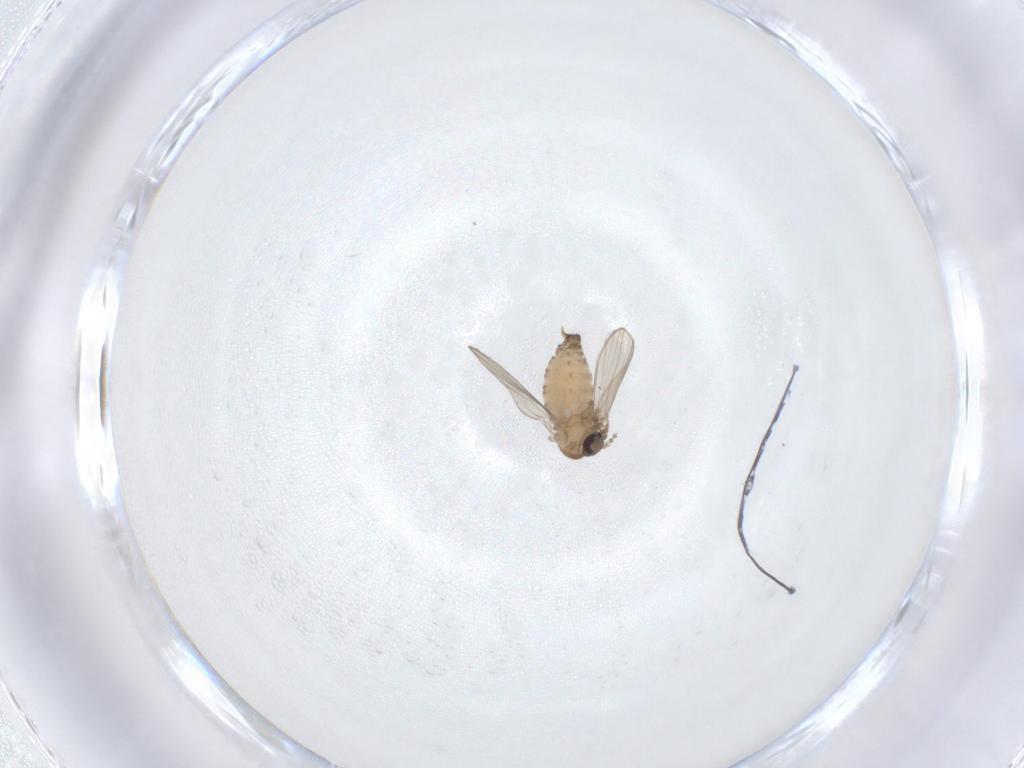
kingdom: Animalia
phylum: Arthropoda
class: Insecta
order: Diptera
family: Psychodidae
